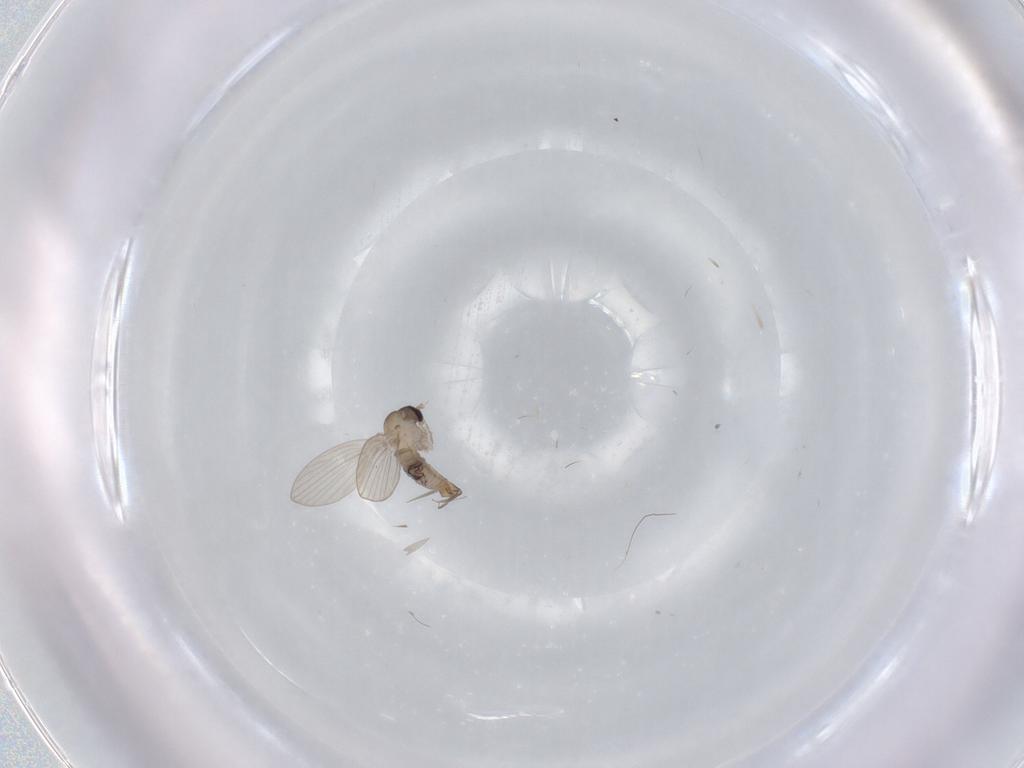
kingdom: Animalia
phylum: Arthropoda
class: Insecta
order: Diptera
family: Psychodidae
